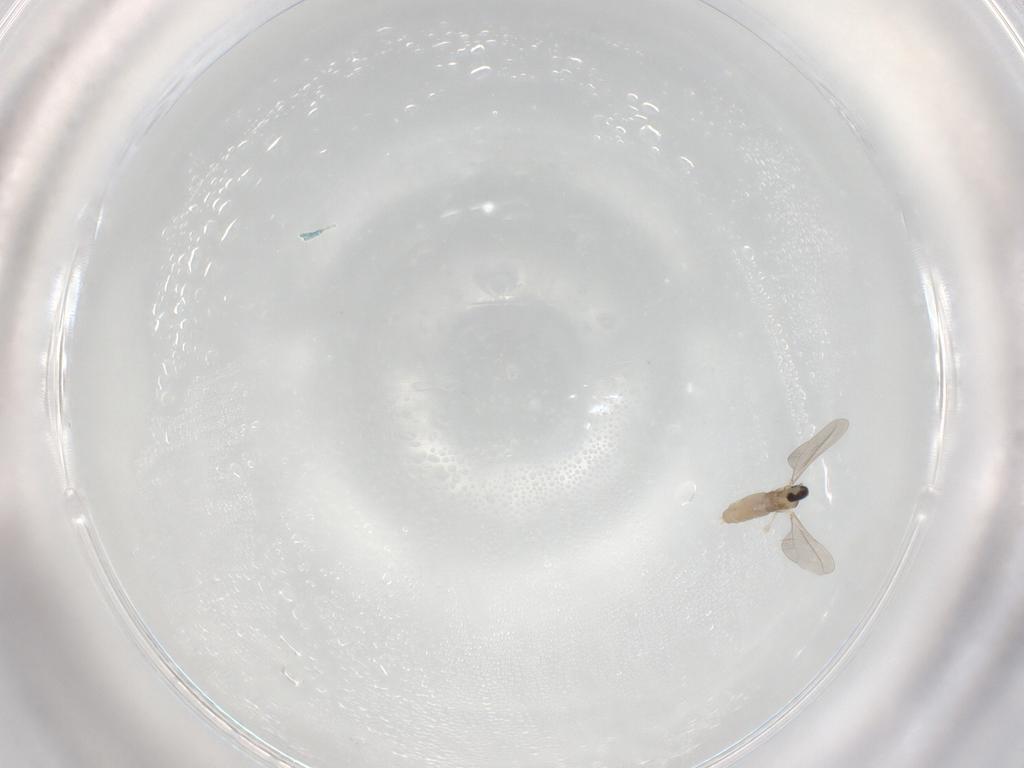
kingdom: Animalia
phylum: Arthropoda
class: Insecta
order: Diptera
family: Cecidomyiidae
